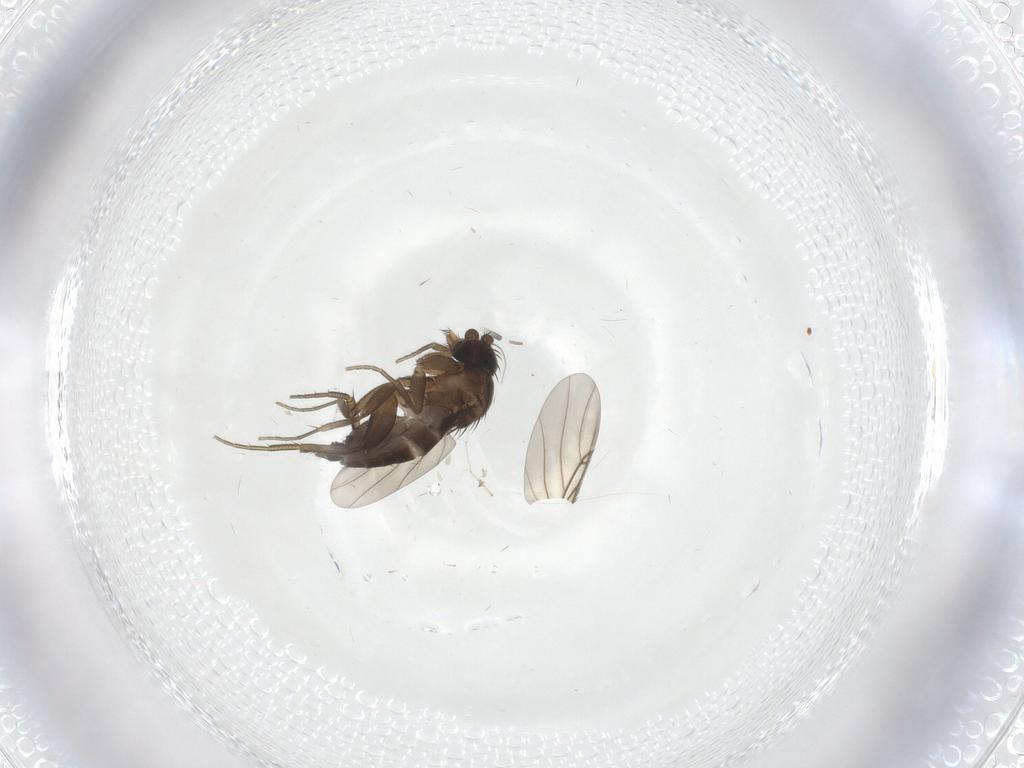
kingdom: Animalia
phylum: Arthropoda
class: Insecta
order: Diptera
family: Phoridae
